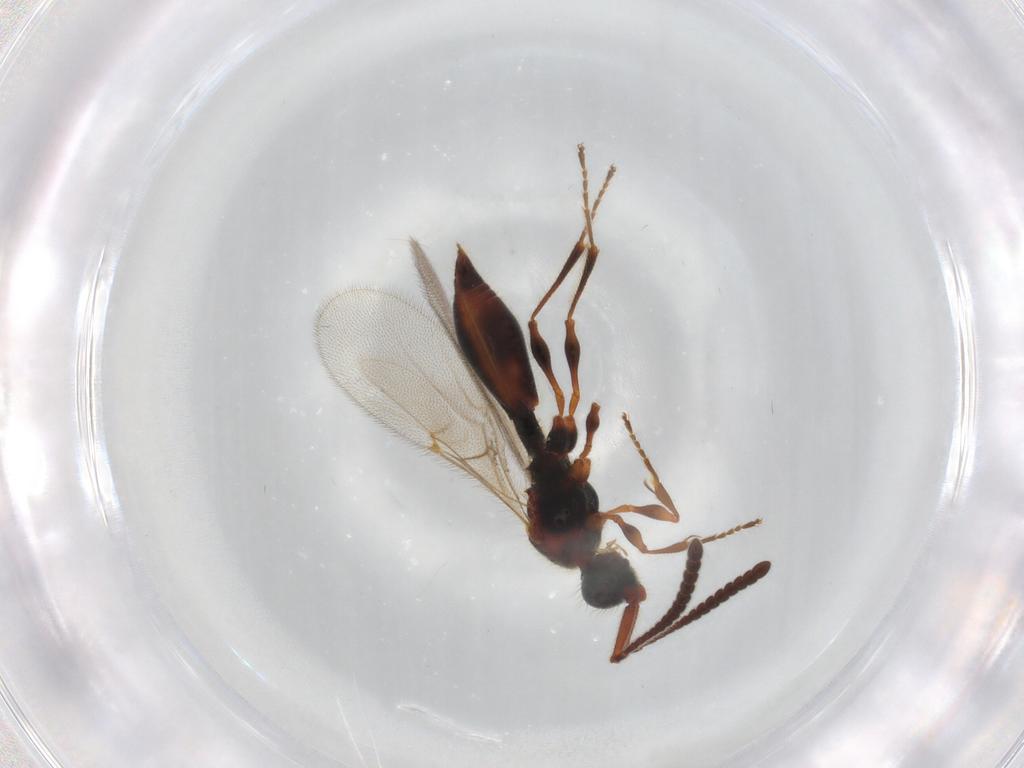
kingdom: Animalia
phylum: Arthropoda
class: Insecta
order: Hymenoptera
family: Diapriidae
